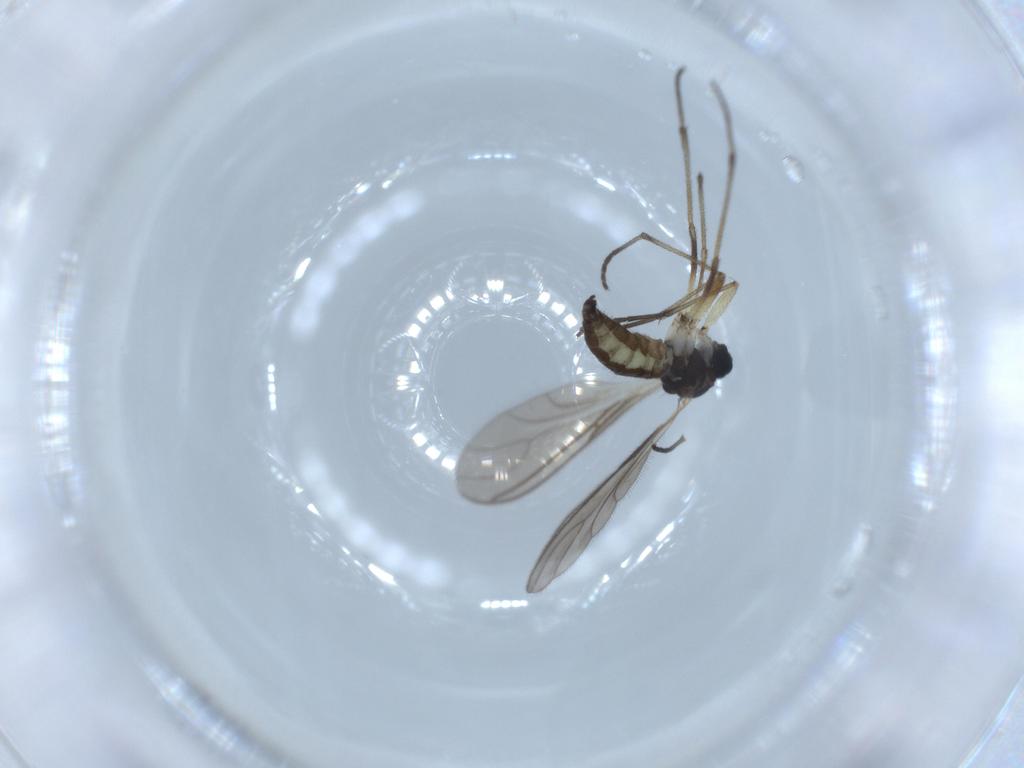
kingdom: Animalia
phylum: Arthropoda
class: Insecta
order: Diptera
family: Sciaridae
